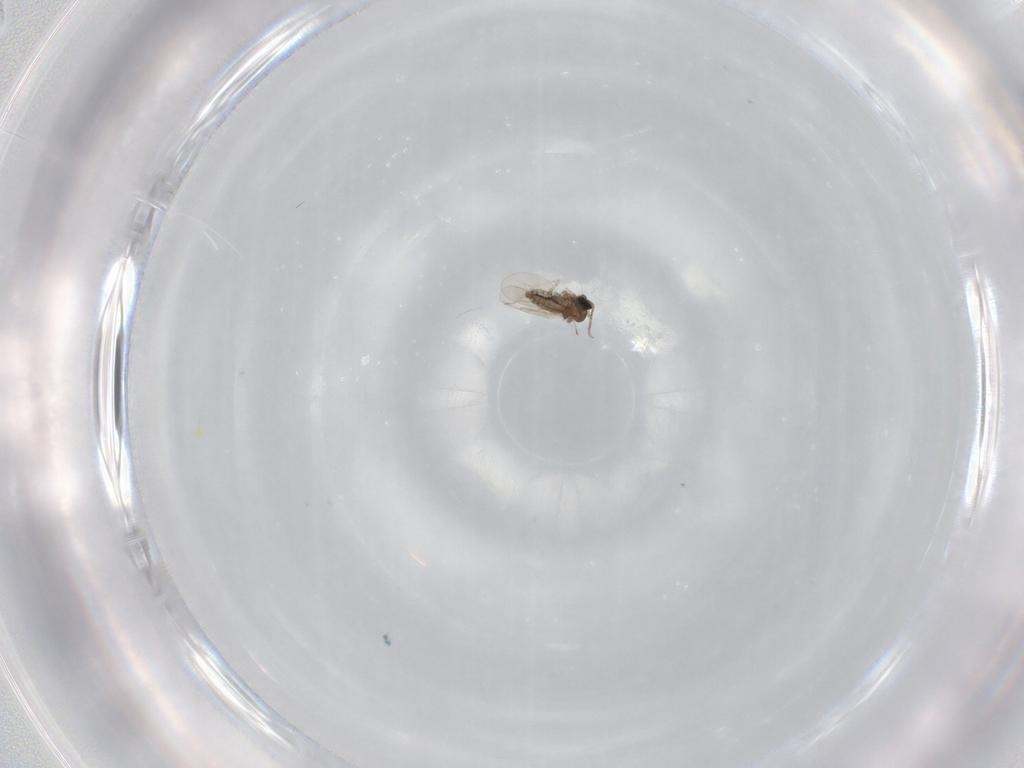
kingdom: Animalia
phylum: Arthropoda
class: Insecta
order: Diptera
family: Cecidomyiidae
